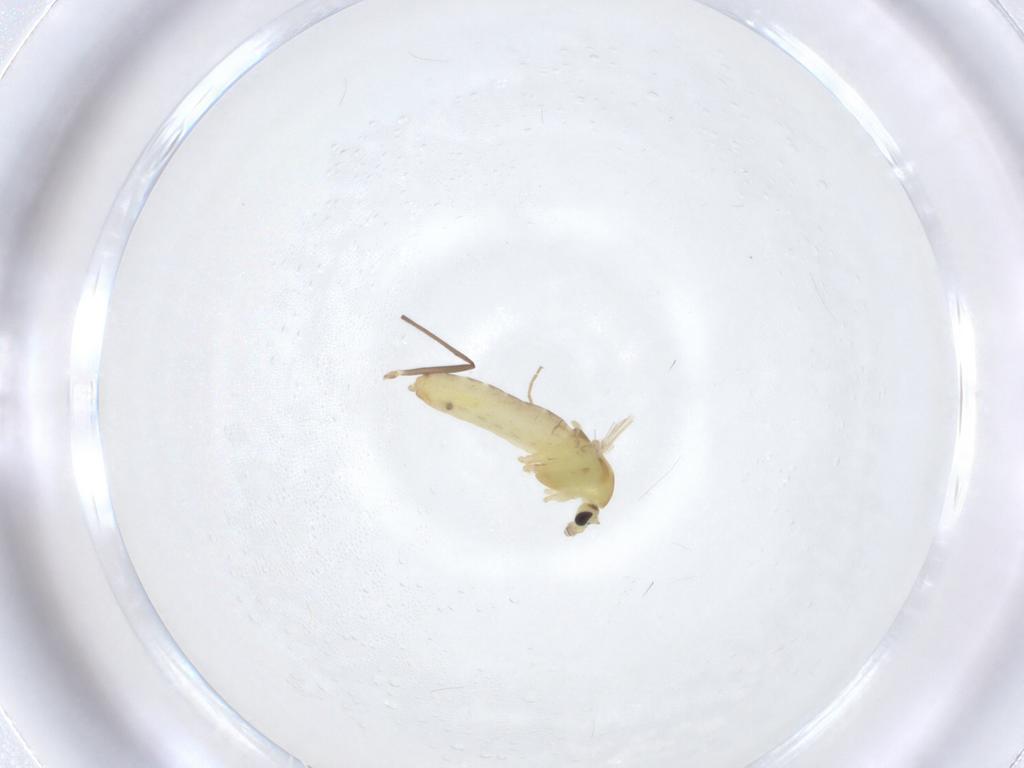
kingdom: Animalia
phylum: Arthropoda
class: Insecta
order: Diptera
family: Chironomidae
